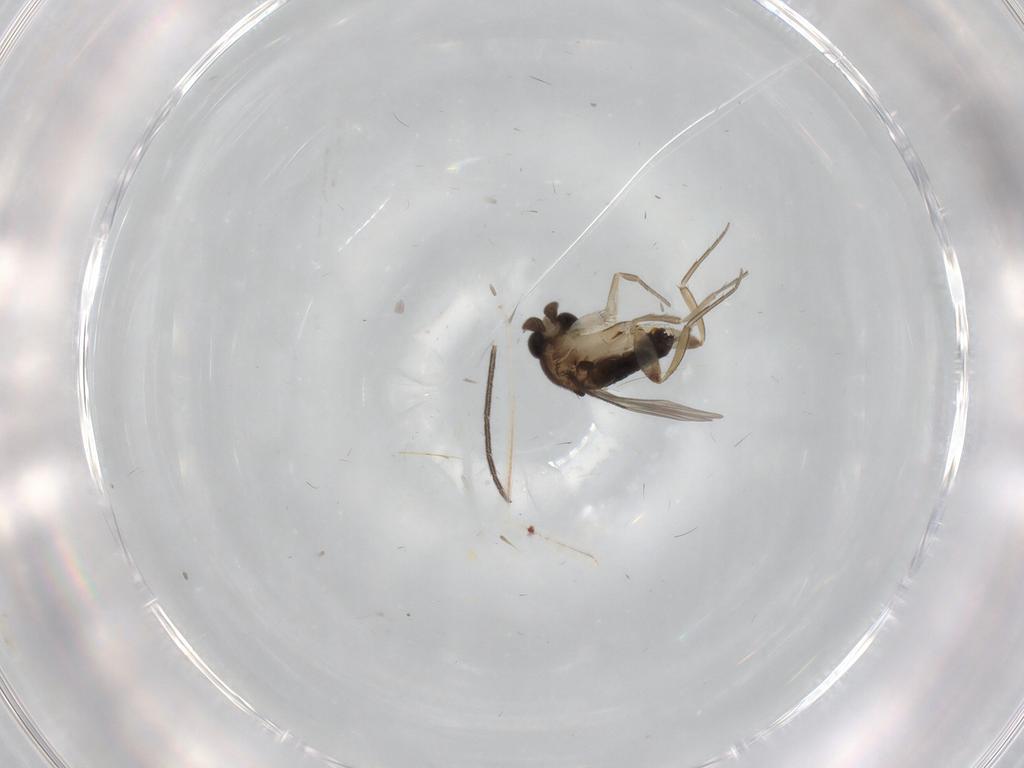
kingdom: Animalia
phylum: Arthropoda
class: Insecta
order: Diptera
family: Phoridae
